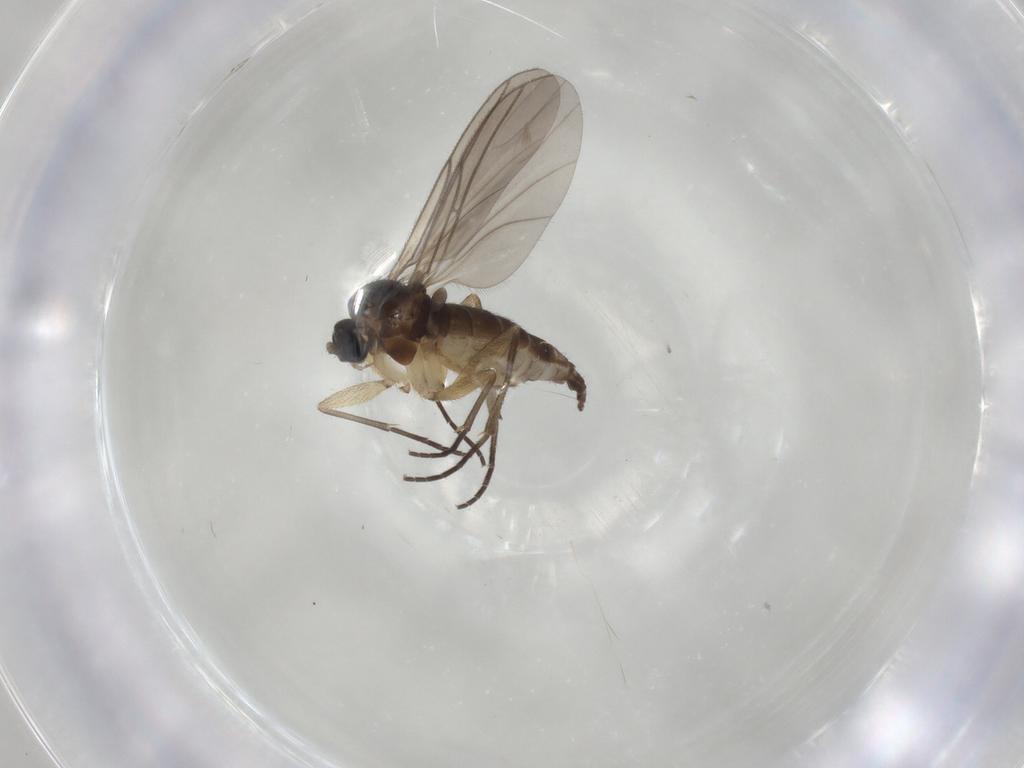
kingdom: Animalia
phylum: Arthropoda
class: Insecta
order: Diptera
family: Sciaridae
